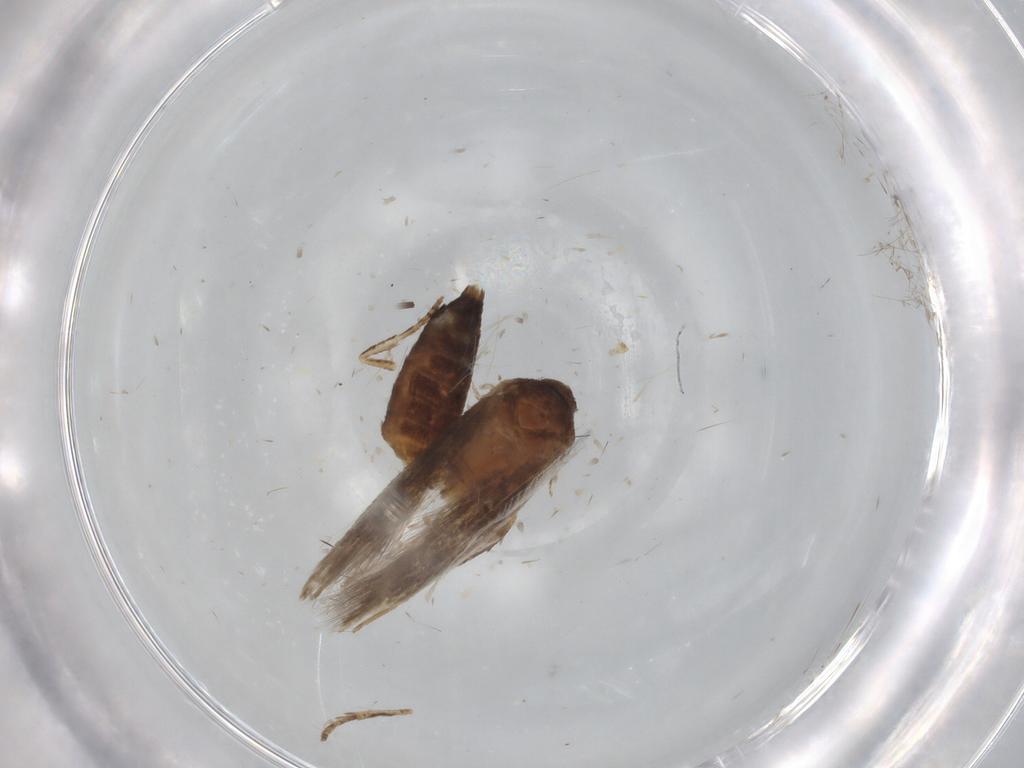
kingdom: Animalia
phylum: Arthropoda
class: Insecta
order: Lepidoptera
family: Cosmopterigidae
